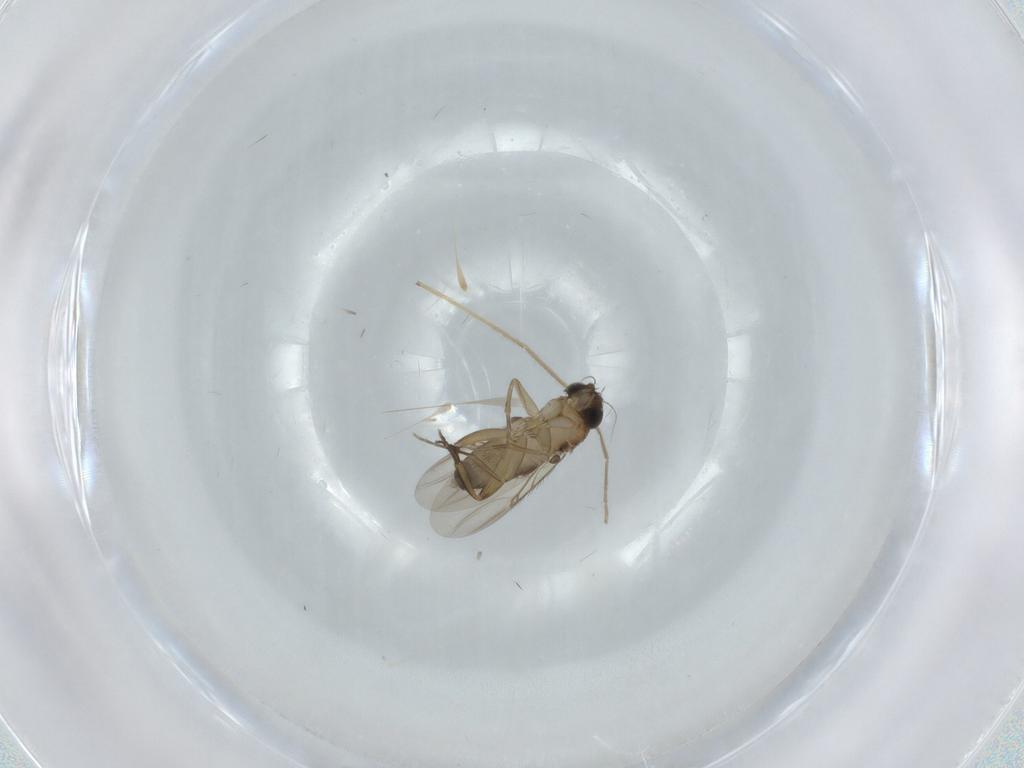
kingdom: Animalia
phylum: Arthropoda
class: Insecta
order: Diptera
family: Phoridae
